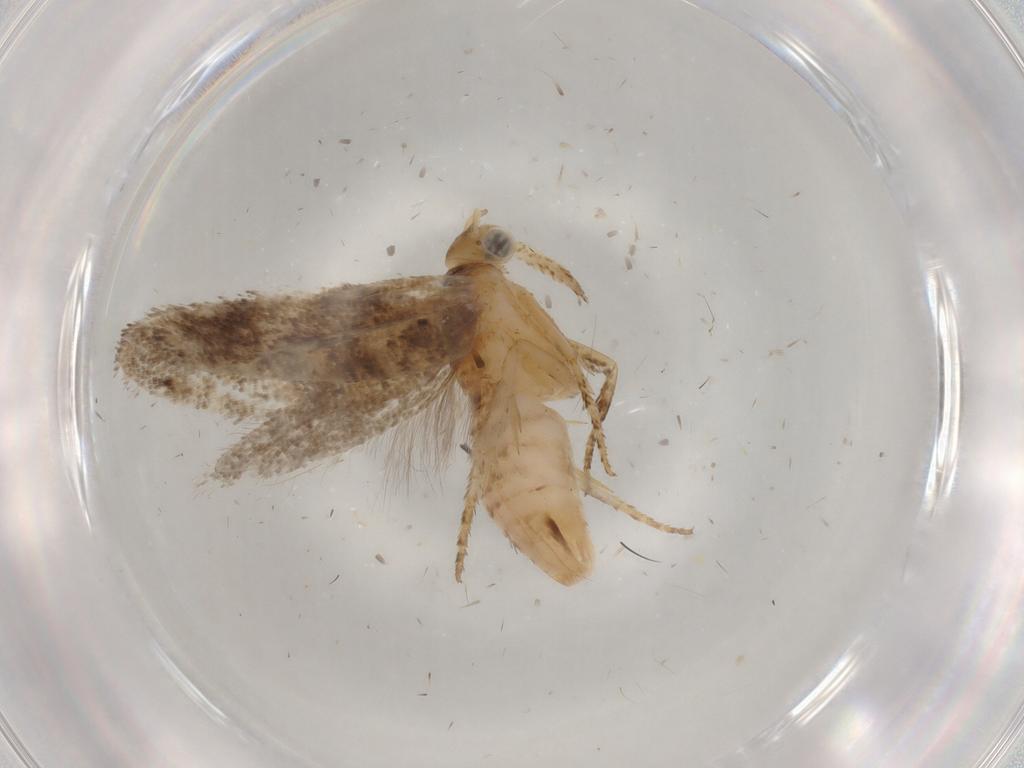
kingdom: Animalia
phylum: Arthropoda
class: Insecta
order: Lepidoptera
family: Plutellidae
